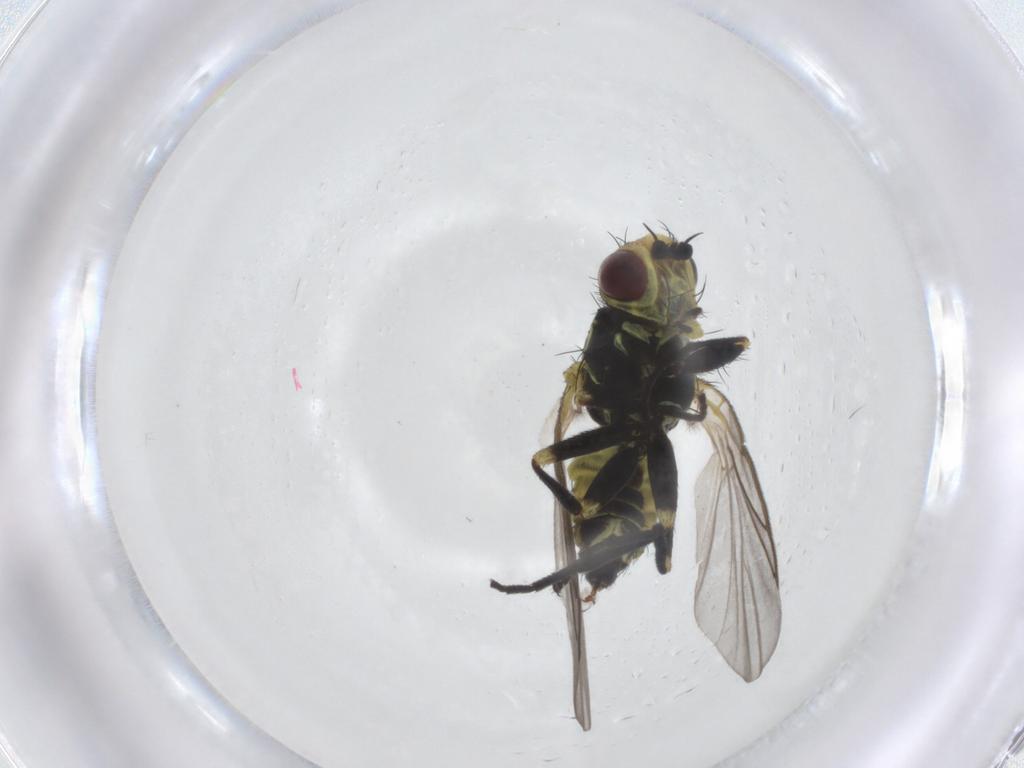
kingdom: Animalia
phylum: Arthropoda
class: Insecta
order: Diptera
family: Agromyzidae
